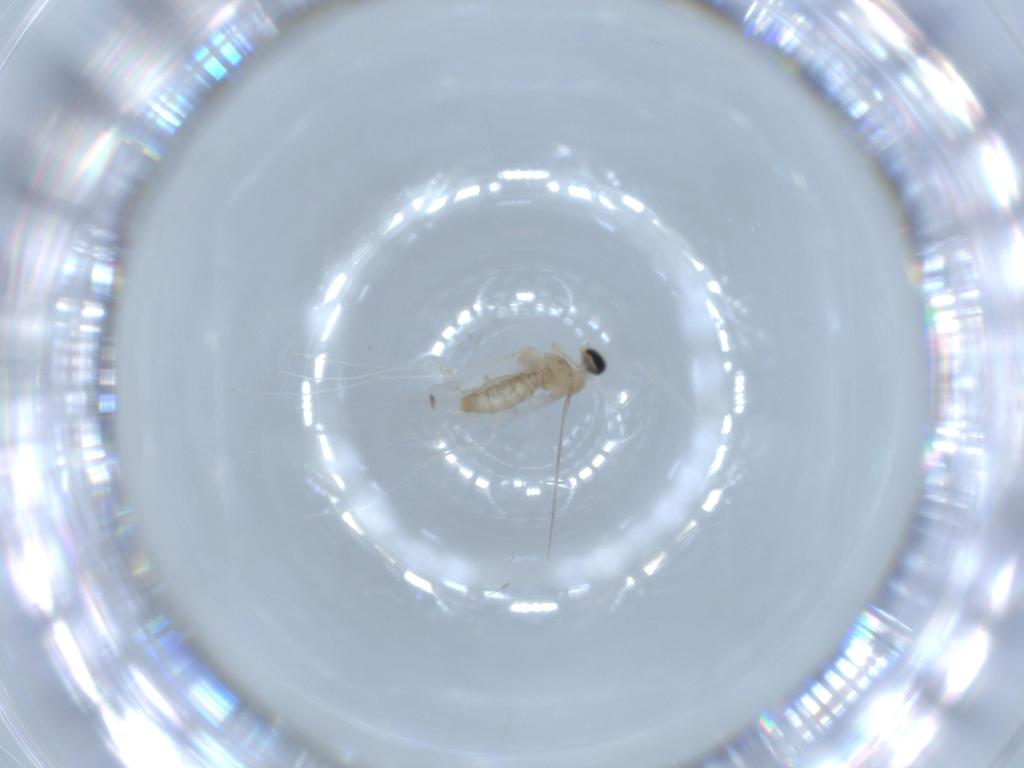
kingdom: Animalia
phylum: Arthropoda
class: Insecta
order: Diptera
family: Cecidomyiidae
